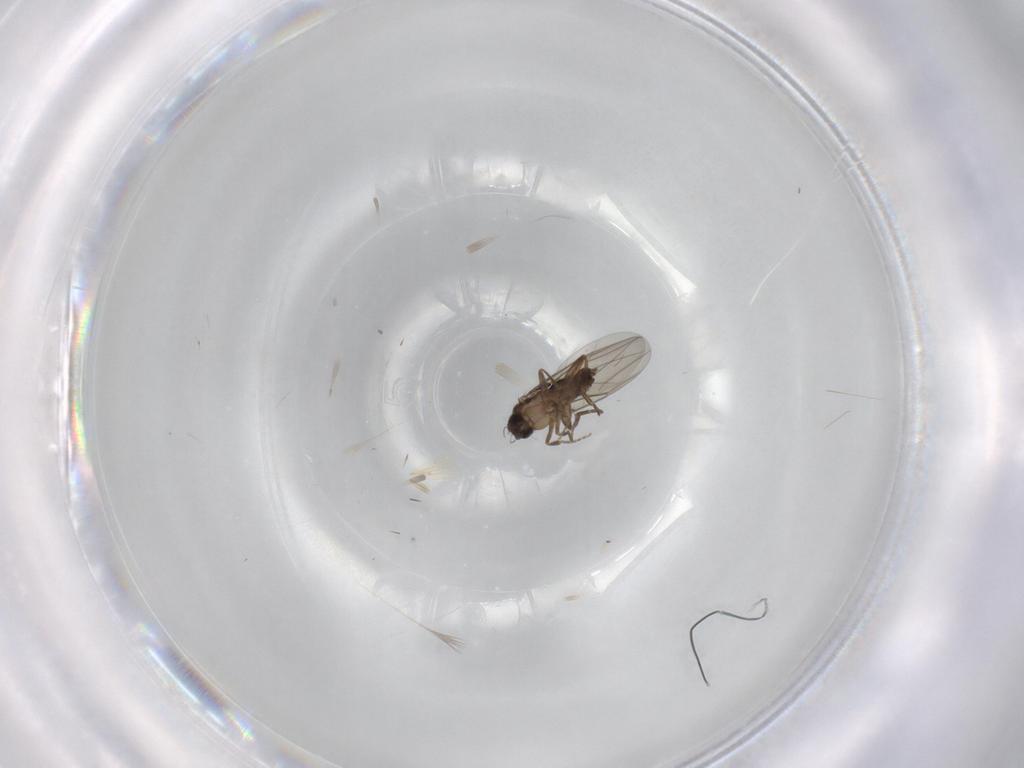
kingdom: Animalia
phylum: Arthropoda
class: Insecta
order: Diptera
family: Phoridae
